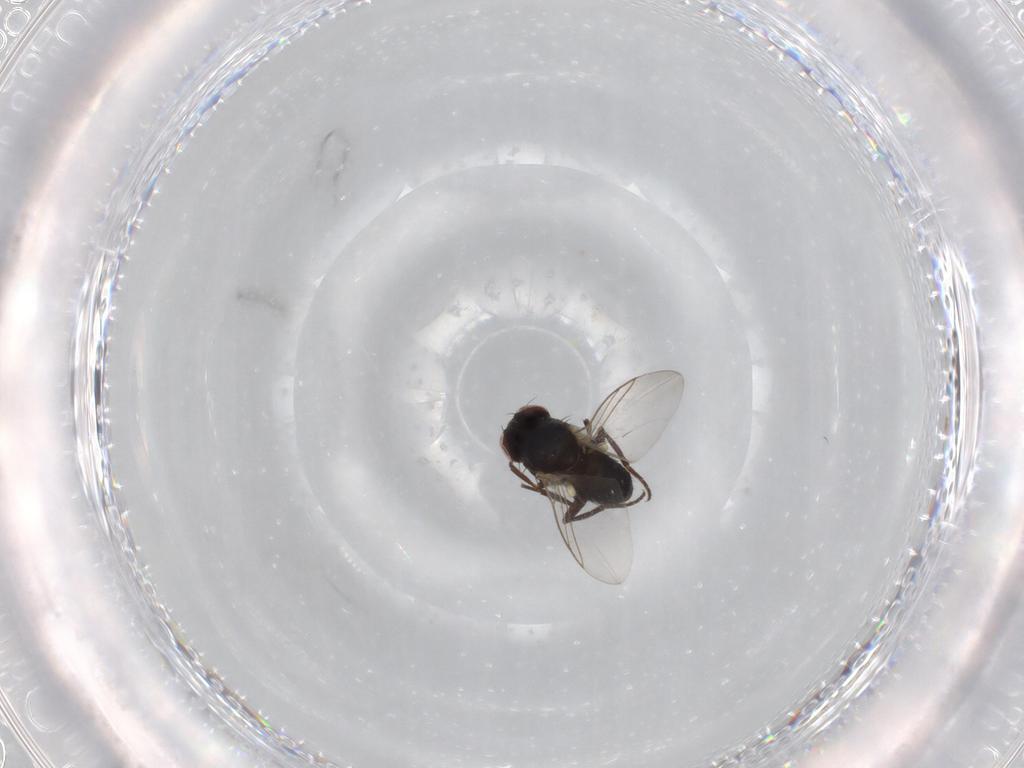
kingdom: Animalia
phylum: Arthropoda
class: Insecta
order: Diptera
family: Agromyzidae
